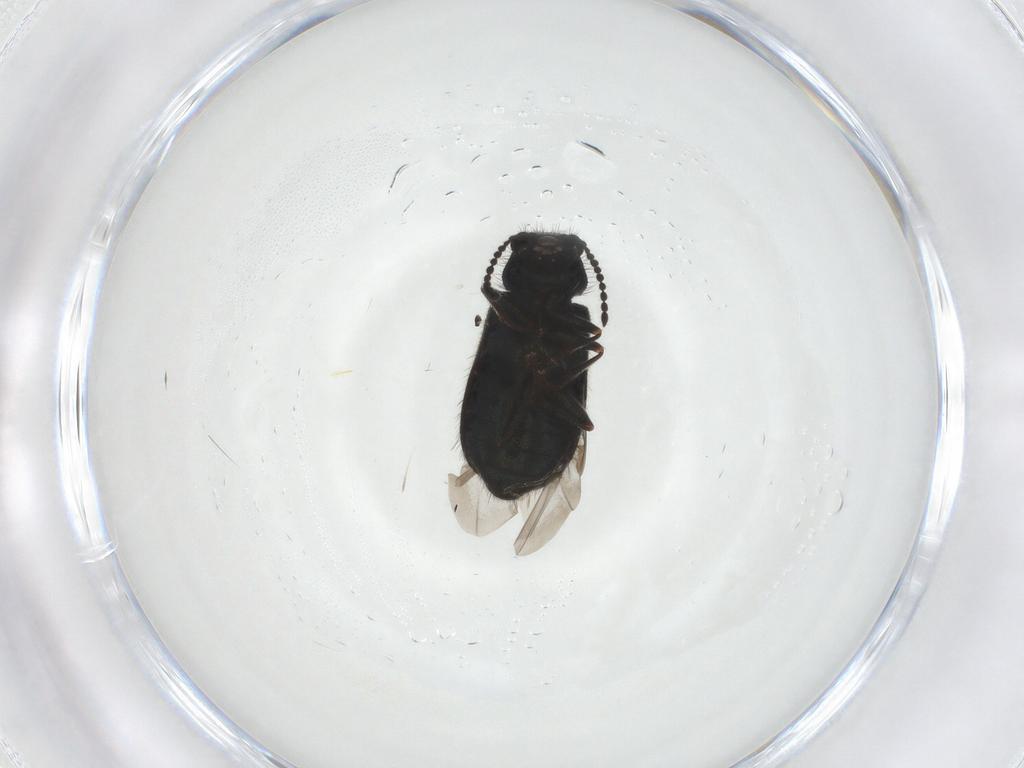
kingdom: Animalia
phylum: Arthropoda
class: Insecta
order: Coleoptera
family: Melyridae
